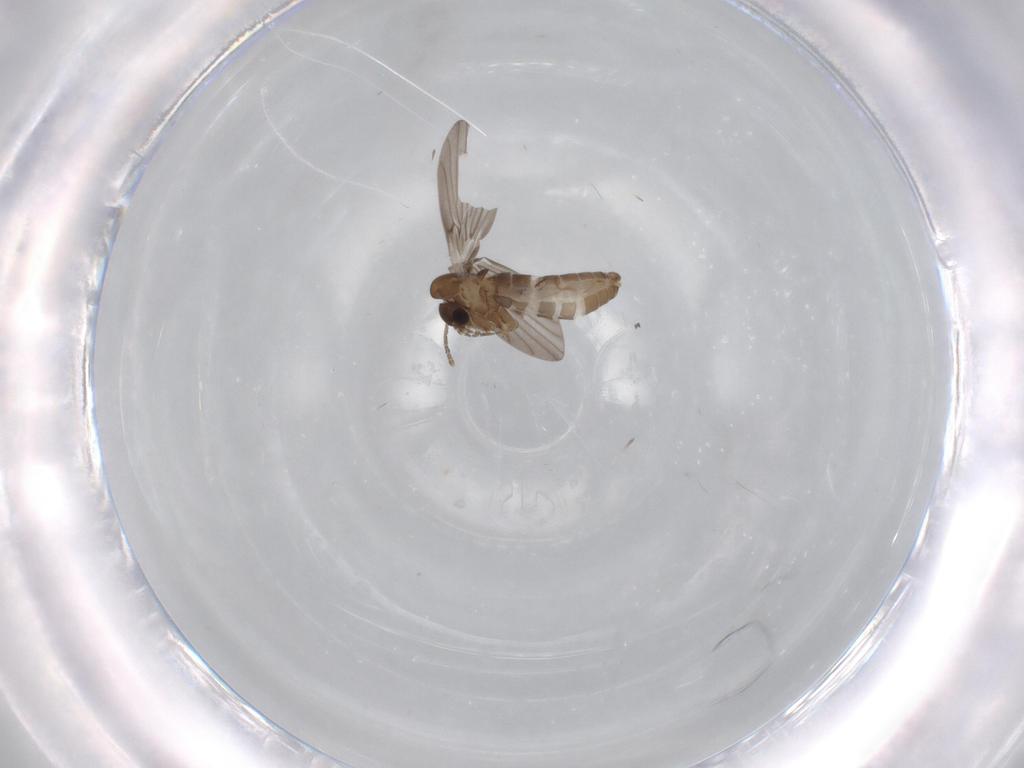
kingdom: Animalia
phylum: Arthropoda
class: Insecta
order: Diptera
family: Psychodidae
